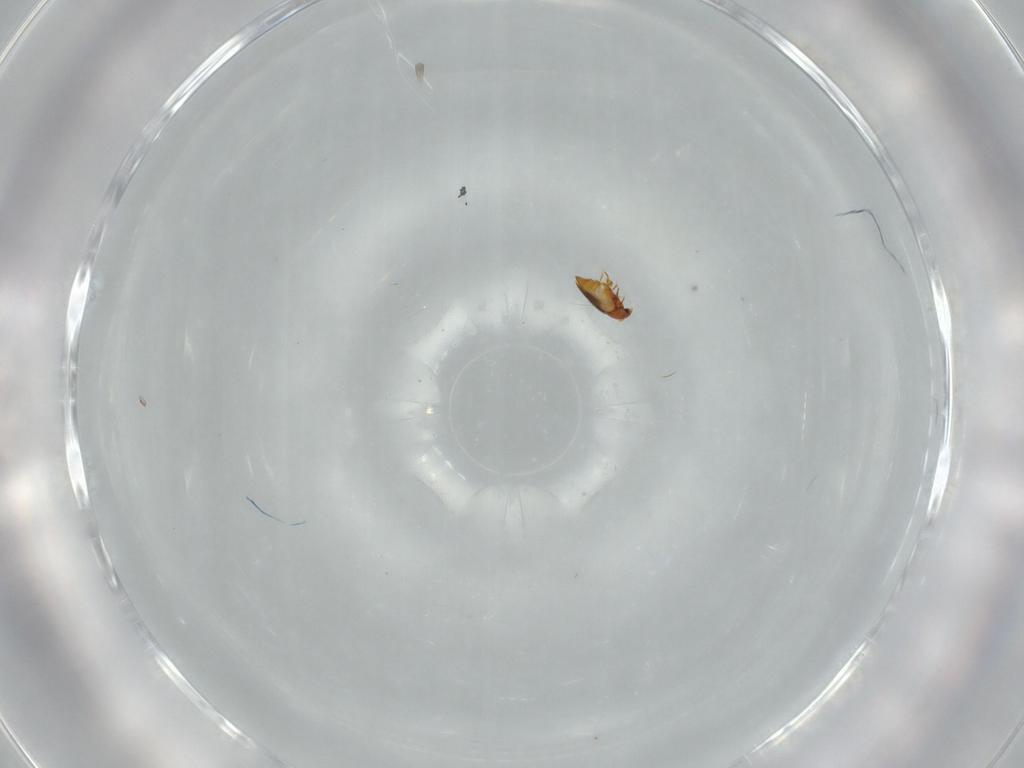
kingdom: Animalia
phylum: Arthropoda
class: Insecta
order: Coleoptera
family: Ptiliidae
